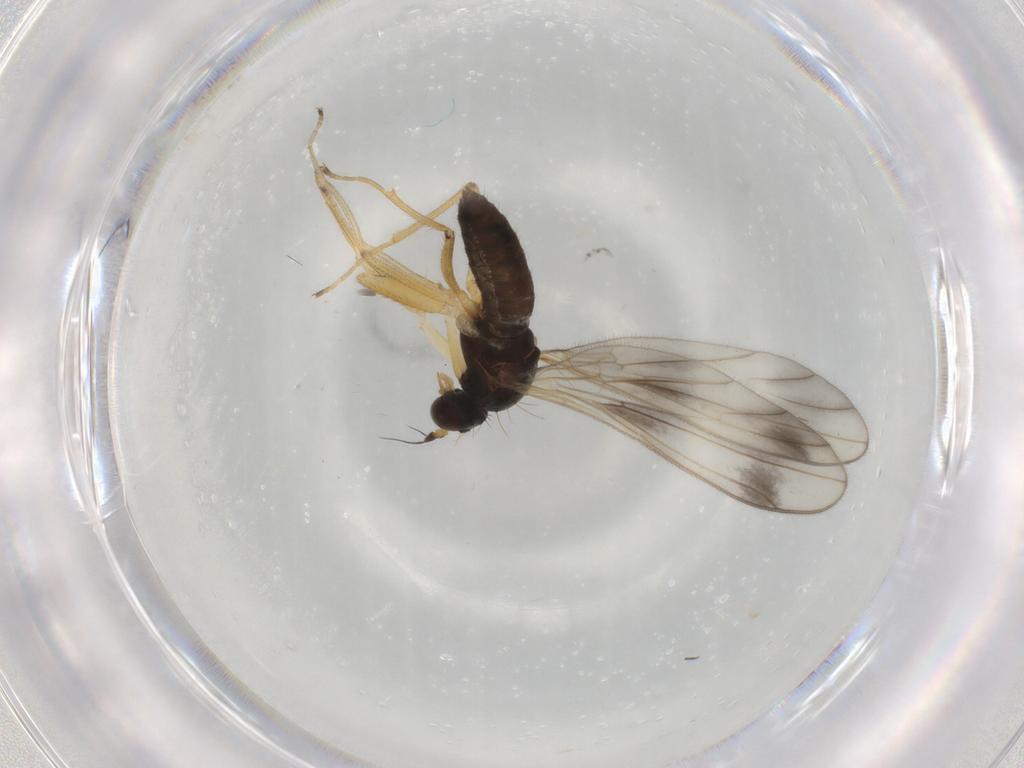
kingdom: Animalia
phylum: Arthropoda
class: Insecta
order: Diptera
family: Empididae
